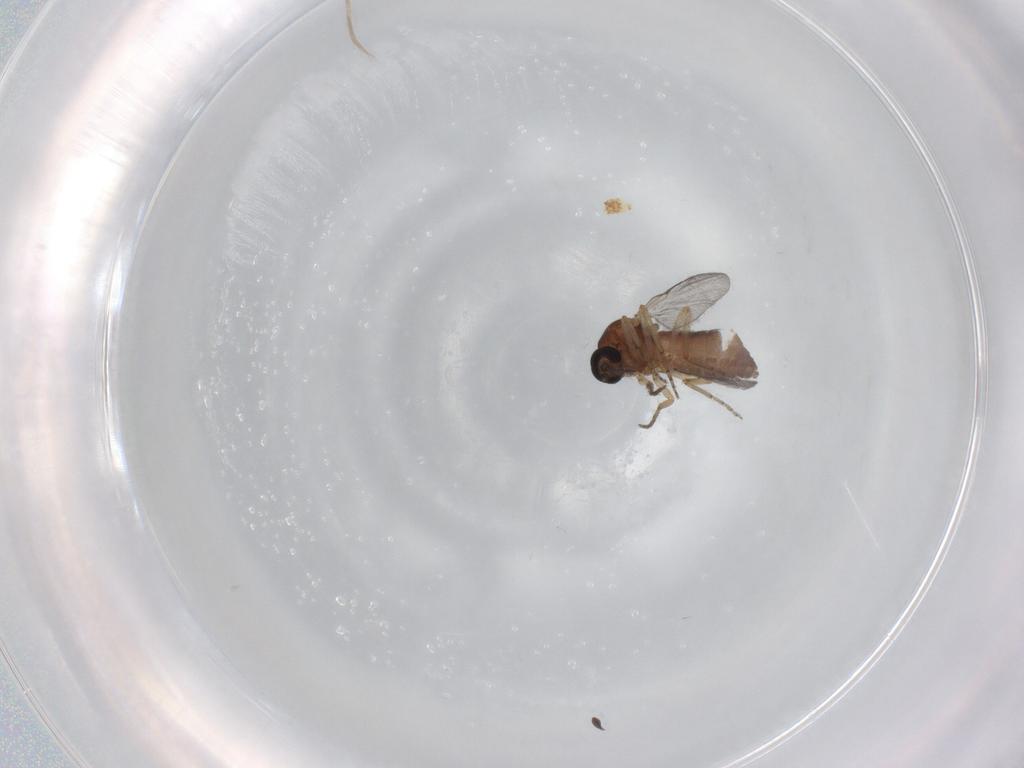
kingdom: Animalia
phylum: Arthropoda
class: Insecta
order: Diptera
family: Ceratopogonidae
